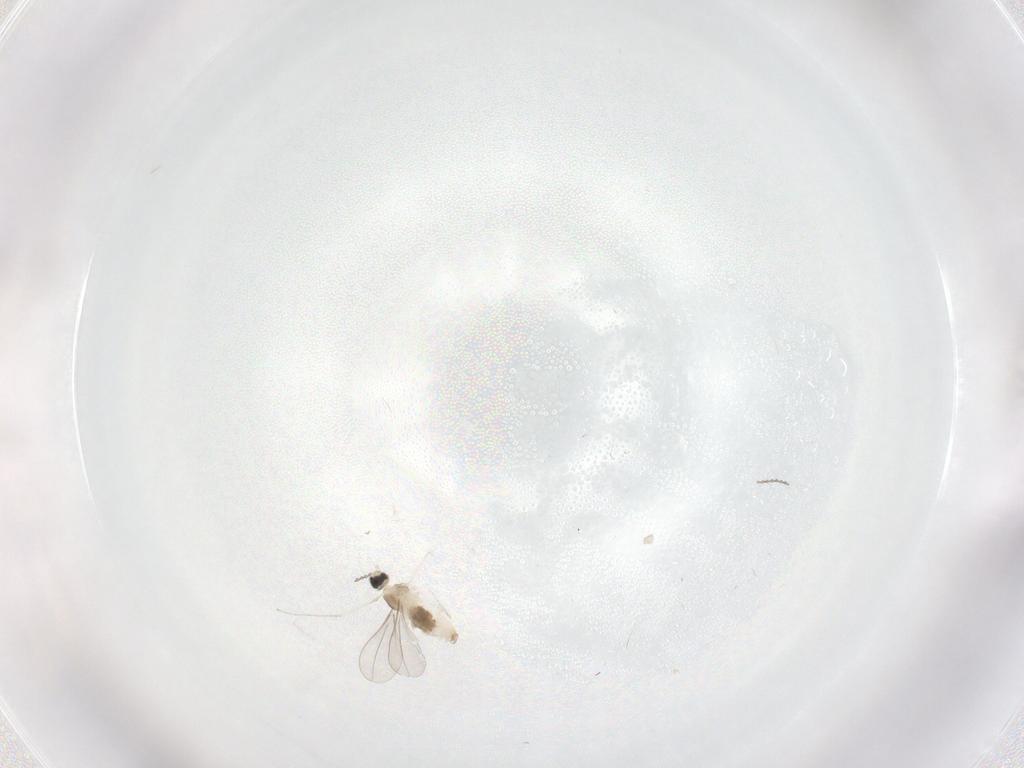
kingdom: Animalia
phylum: Arthropoda
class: Insecta
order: Diptera
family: Cecidomyiidae
